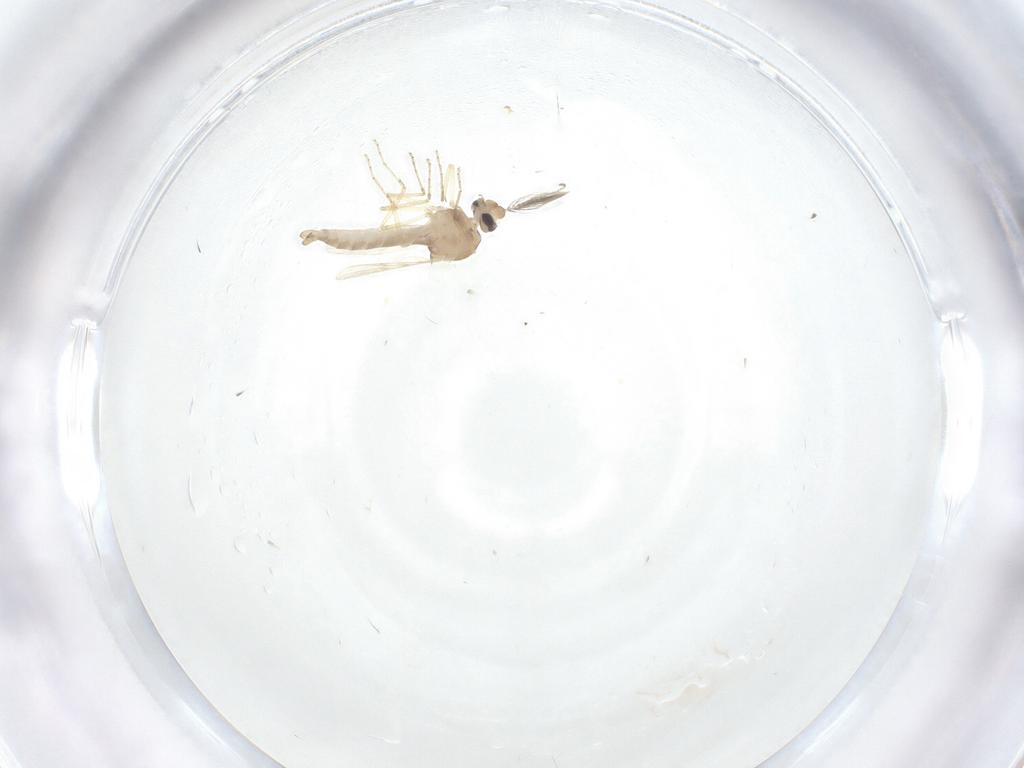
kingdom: Animalia
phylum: Arthropoda
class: Insecta
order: Diptera
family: Ceratopogonidae
